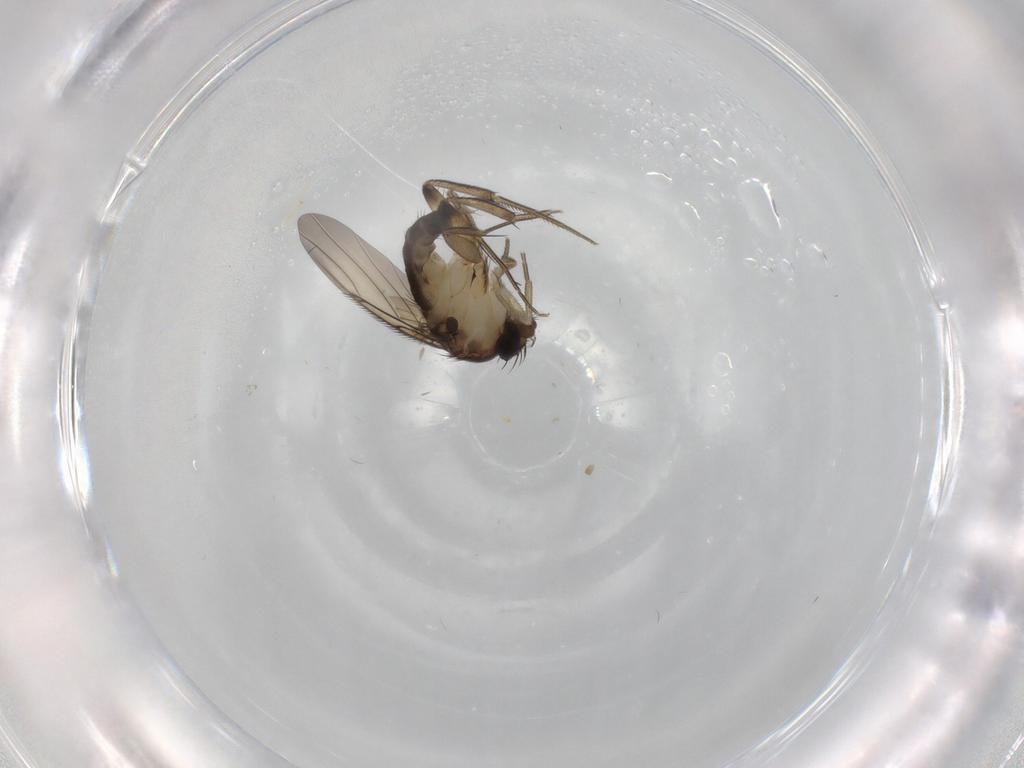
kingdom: Animalia
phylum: Arthropoda
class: Insecta
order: Diptera
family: Phoridae
